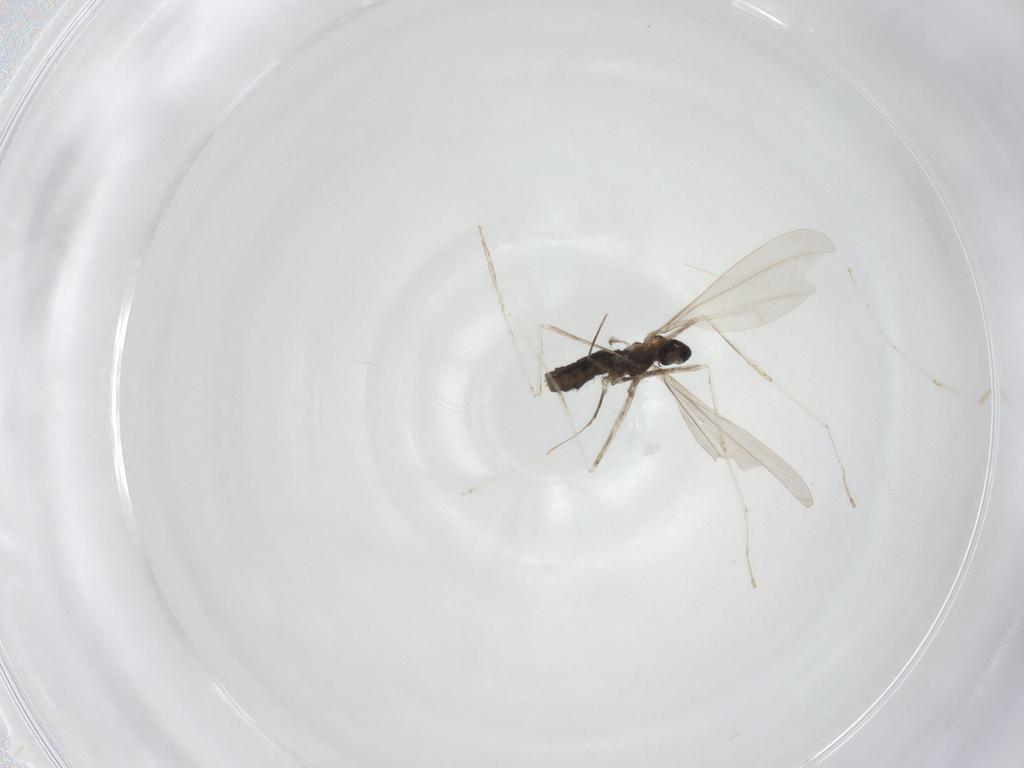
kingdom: Animalia
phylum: Arthropoda
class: Insecta
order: Diptera
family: Cecidomyiidae
